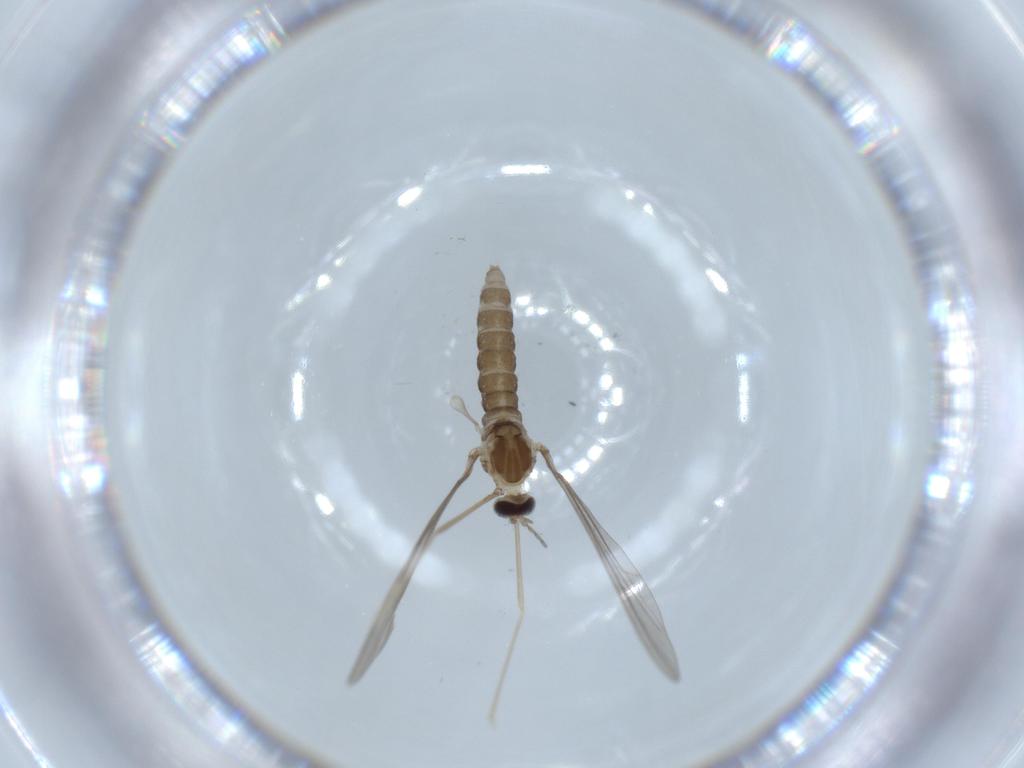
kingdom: Animalia
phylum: Arthropoda
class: Insecta
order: Diptera
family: Cecidomyiidae
